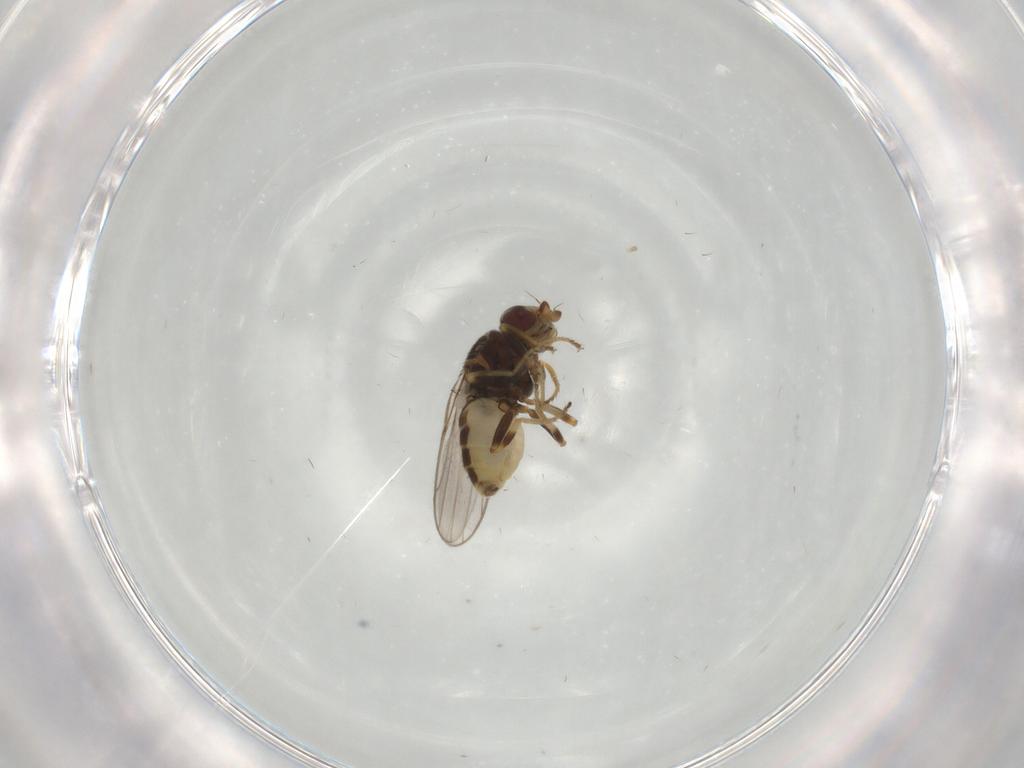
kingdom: Animalia
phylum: Arthropoda
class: Insecta
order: Diptera
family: Chloropidae
